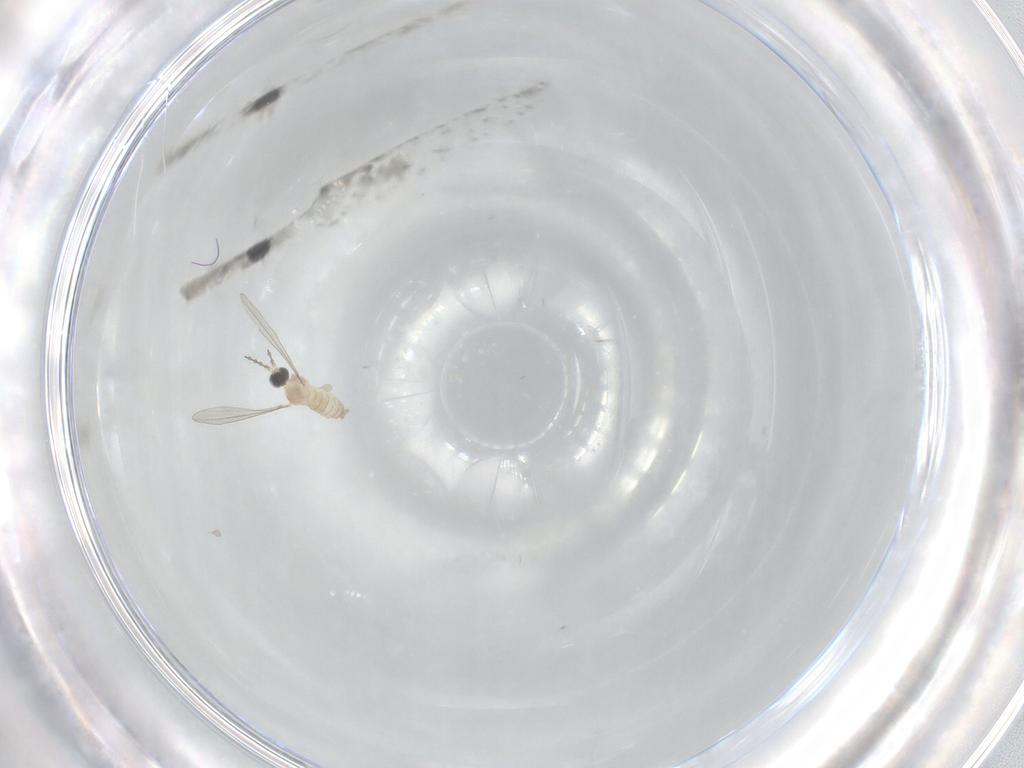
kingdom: Animalia
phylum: Arthropoda
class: Insecta
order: Diptera
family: Cecidomyiidae
